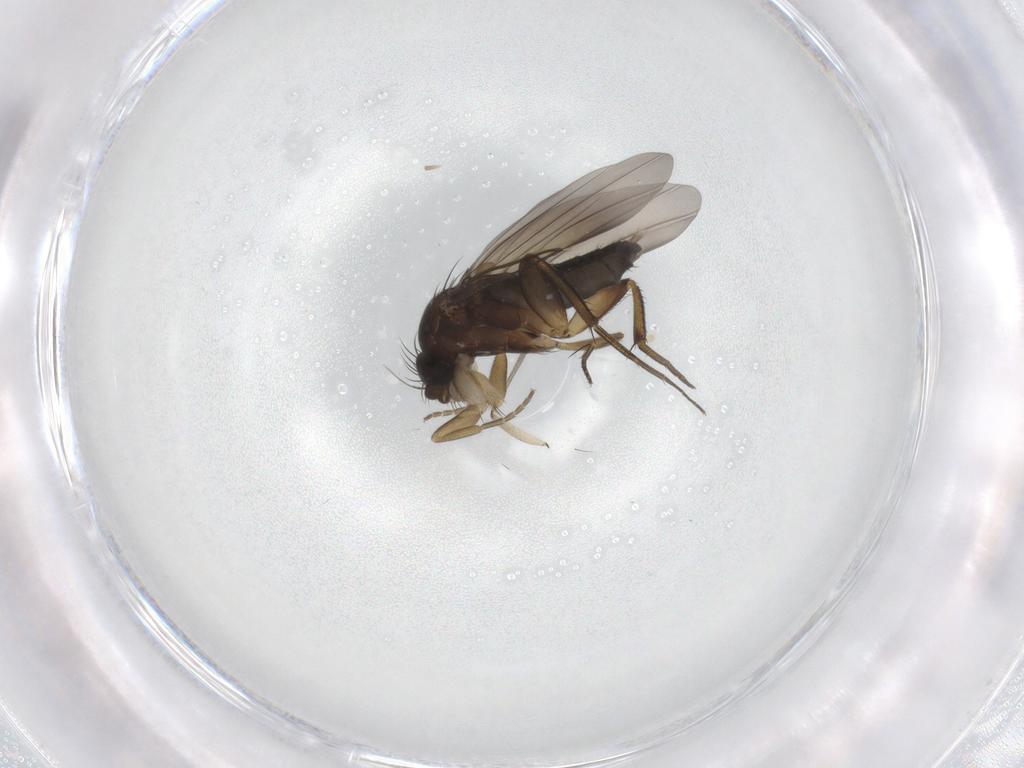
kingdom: Animalia
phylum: Arthropoda
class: Insecta
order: Diptera
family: Phoridae
